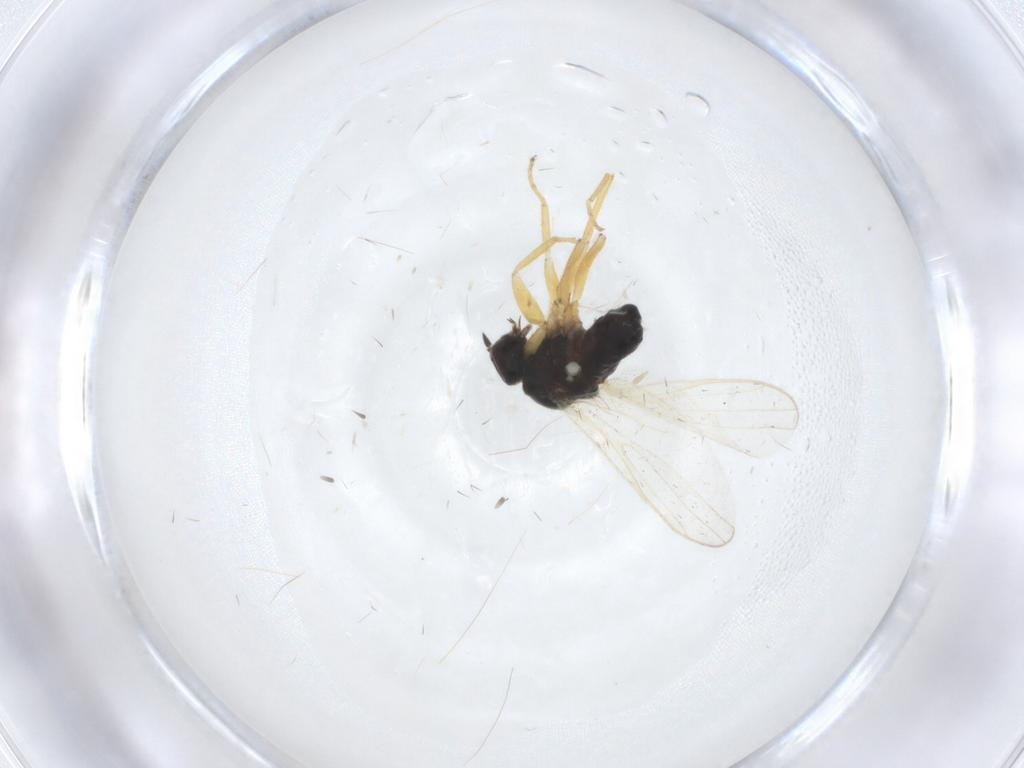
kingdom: Animalia
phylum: Arthropoda
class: Insecta
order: Diptera
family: Hybotidae
